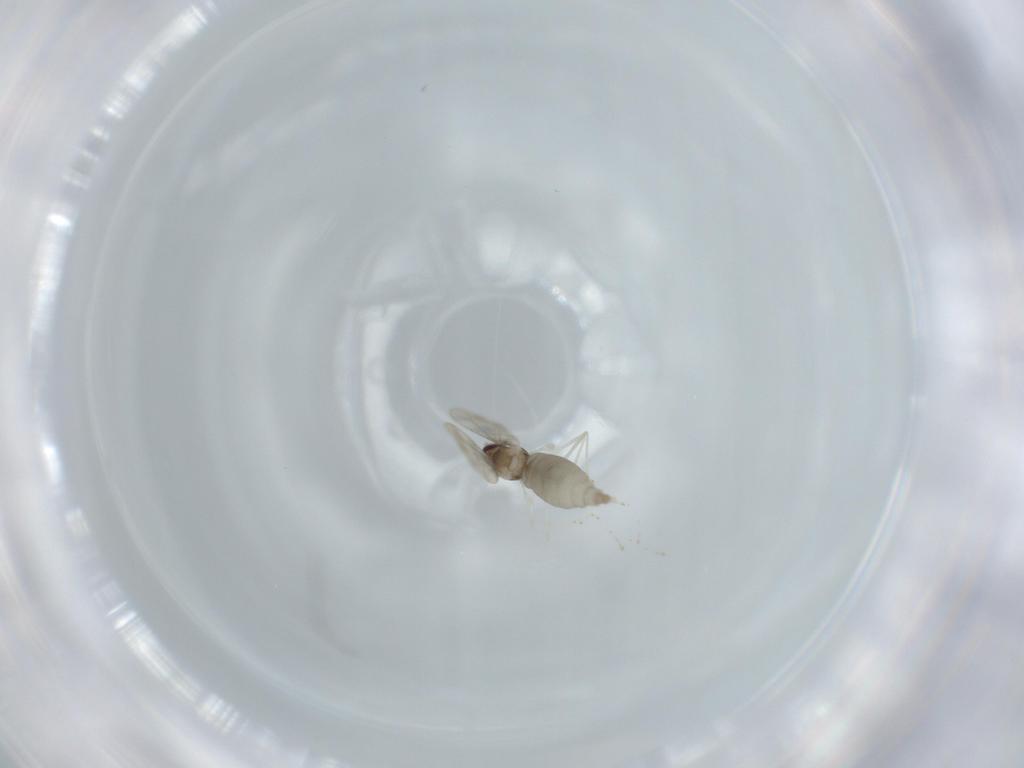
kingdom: Animalia
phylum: Arthropoda
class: Insecta
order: Diptera
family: Cecidomyiidae
